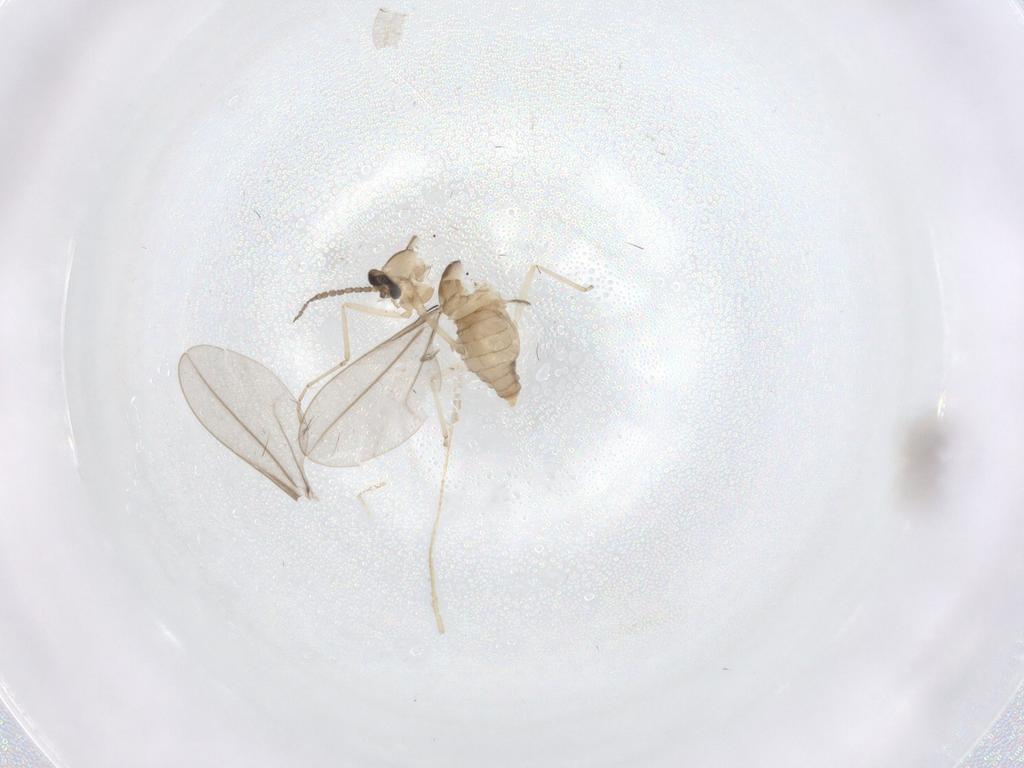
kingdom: Animalia
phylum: Arthropoda
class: Insecta
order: Diptera
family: Cecidomyiidae
